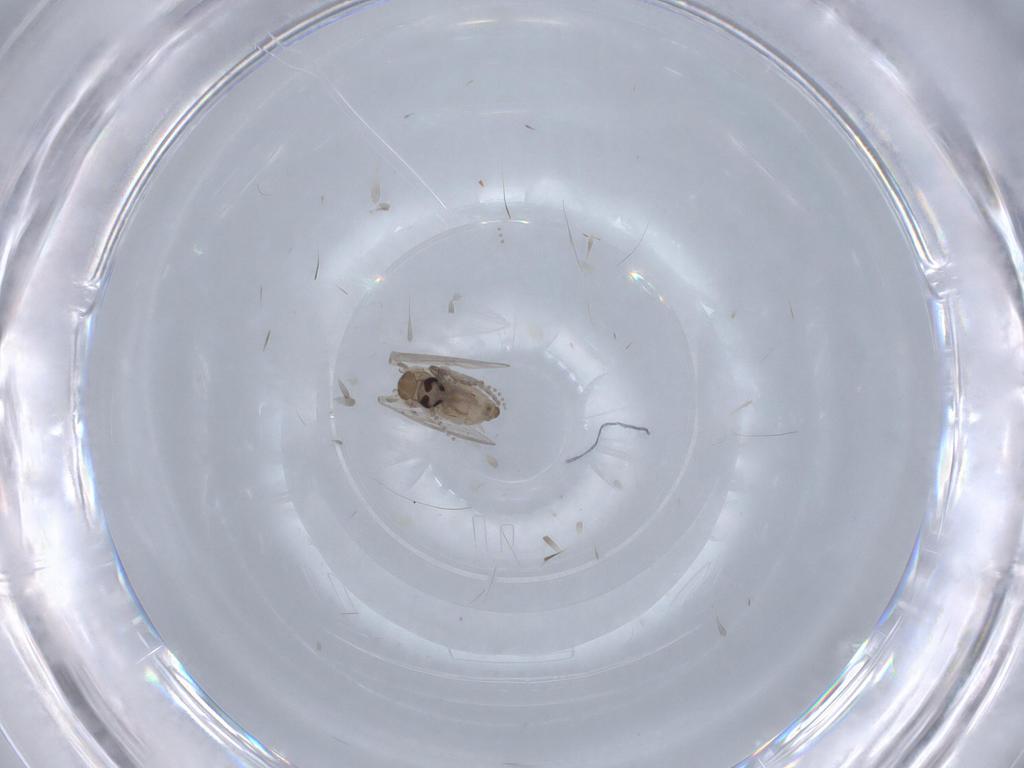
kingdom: Animalia
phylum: Arthropoda
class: Insecta
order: Diptera
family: Psychodidae
